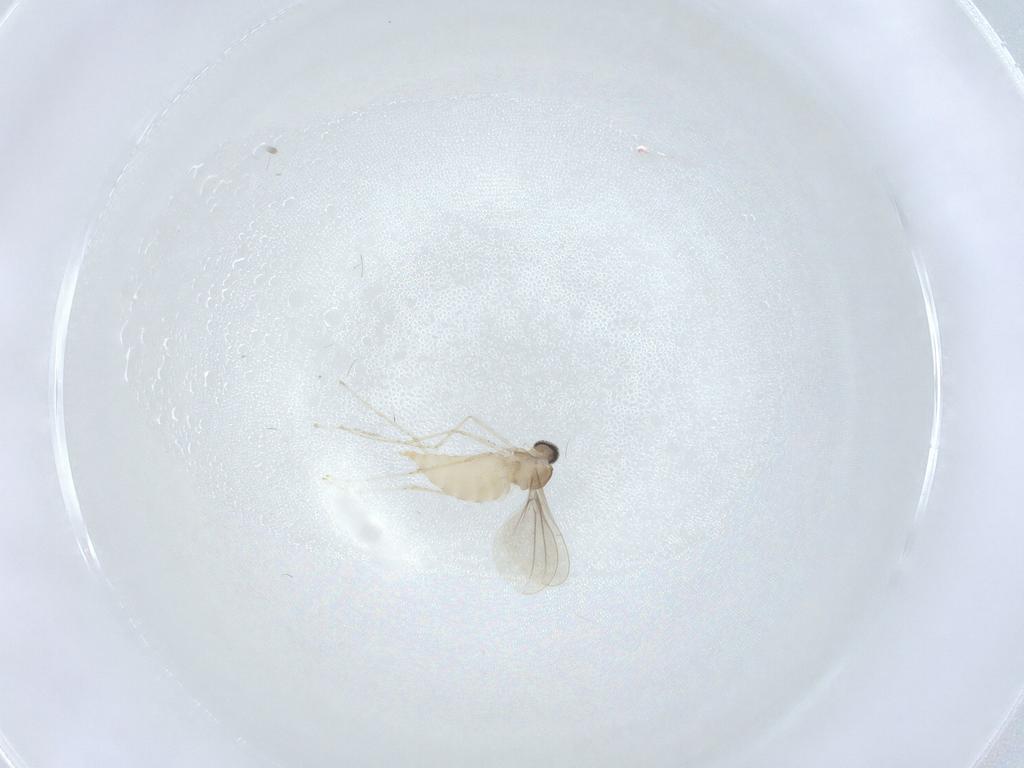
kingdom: Animalia
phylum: Arthropoda
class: Insecta
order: Diptera
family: Cecidomyiidae
